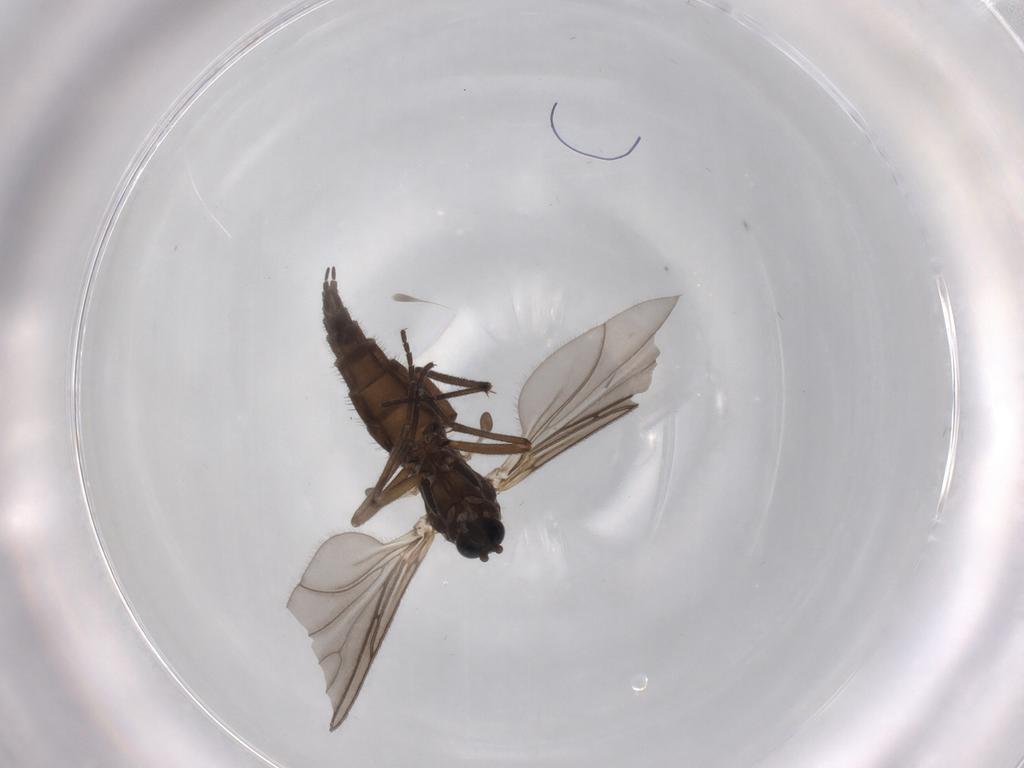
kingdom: Animalia
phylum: Arthropoda
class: Insecta
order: Diptera
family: Sciaridae
